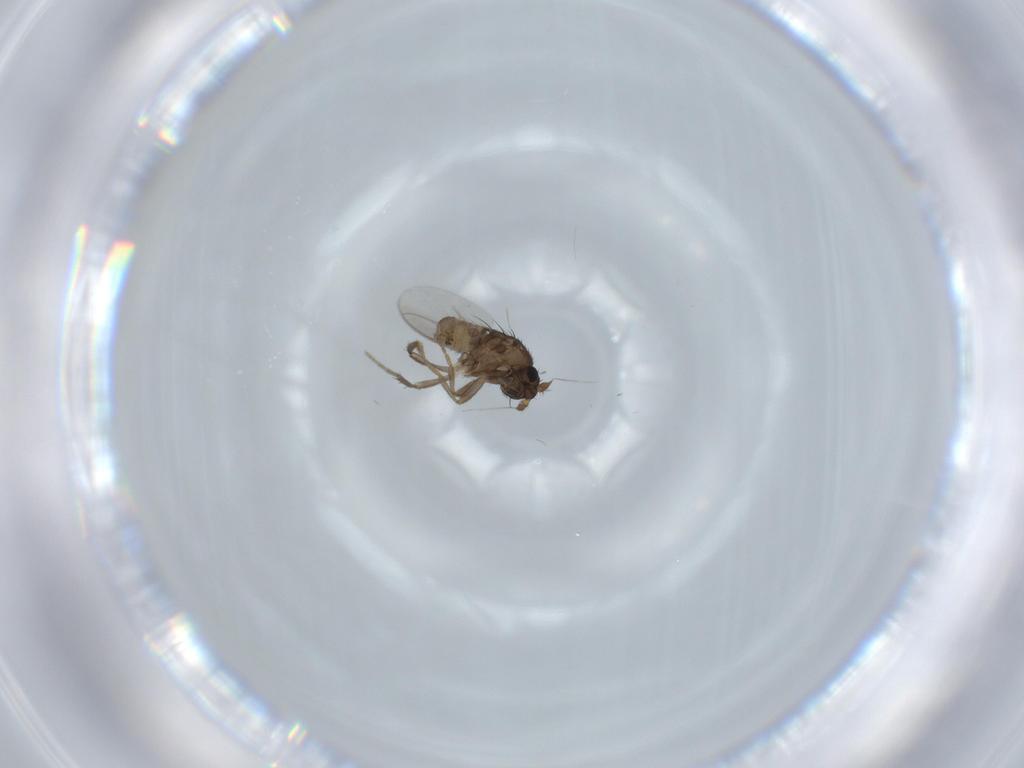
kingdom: Animalia
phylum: Arthropoda
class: Insecta
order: Diptera
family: Sphaeroceridae
